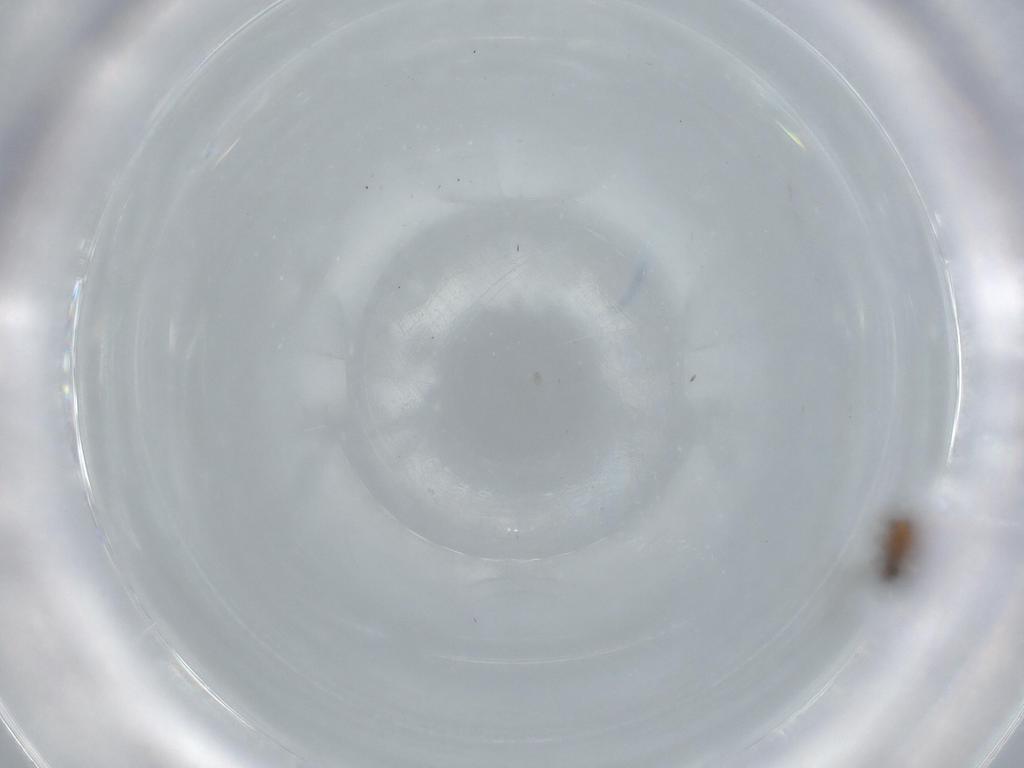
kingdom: Animalia
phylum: Arthropoda
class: Insecta
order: Diptera
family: Chironomidae
